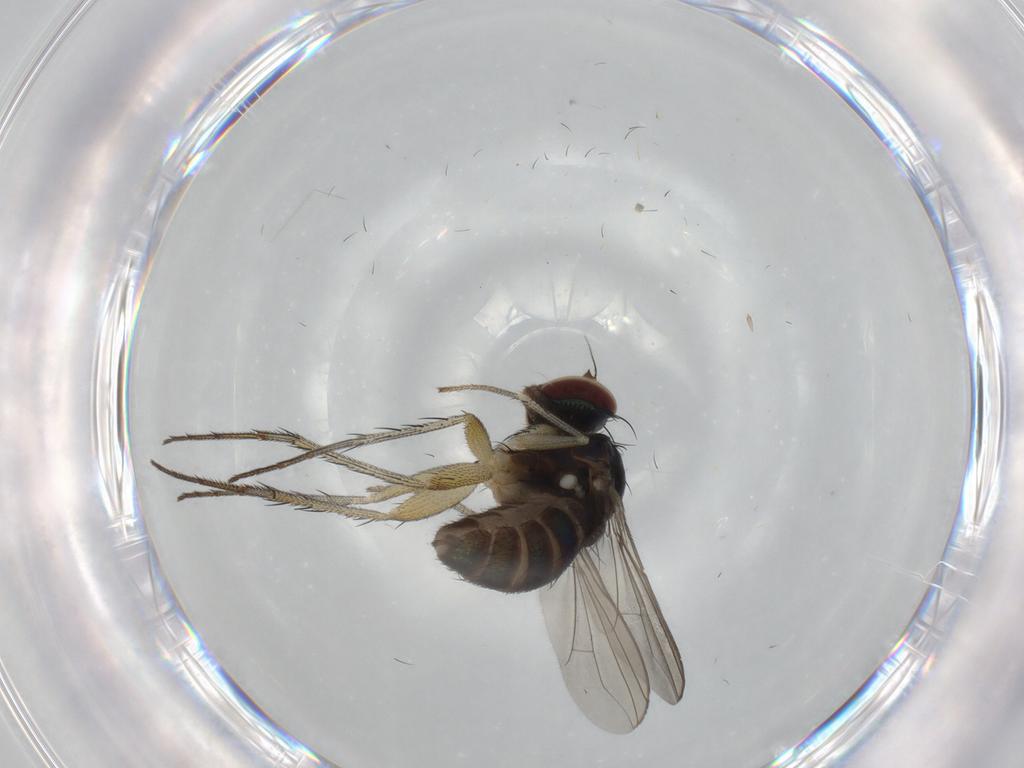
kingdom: Animalia
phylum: Arthropoda
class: Insecta
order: Diptera
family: Dolichopodidae
